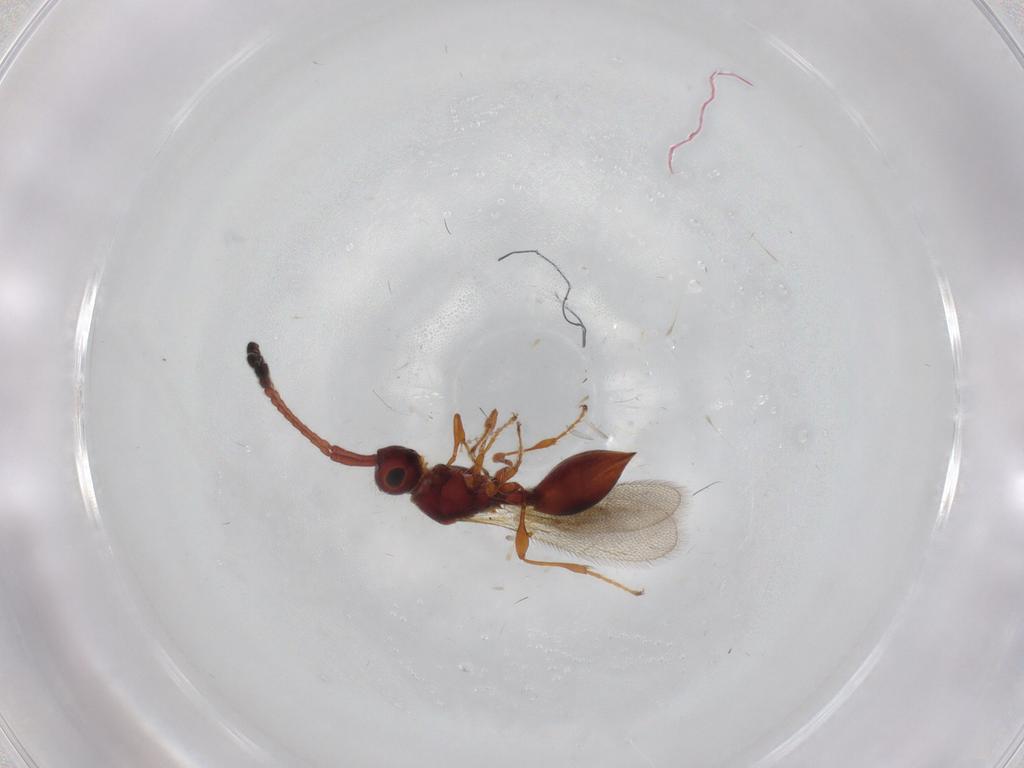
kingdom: Animalia
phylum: Arthropoda
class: Insecta
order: Hymenoptera
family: Diapriidae
